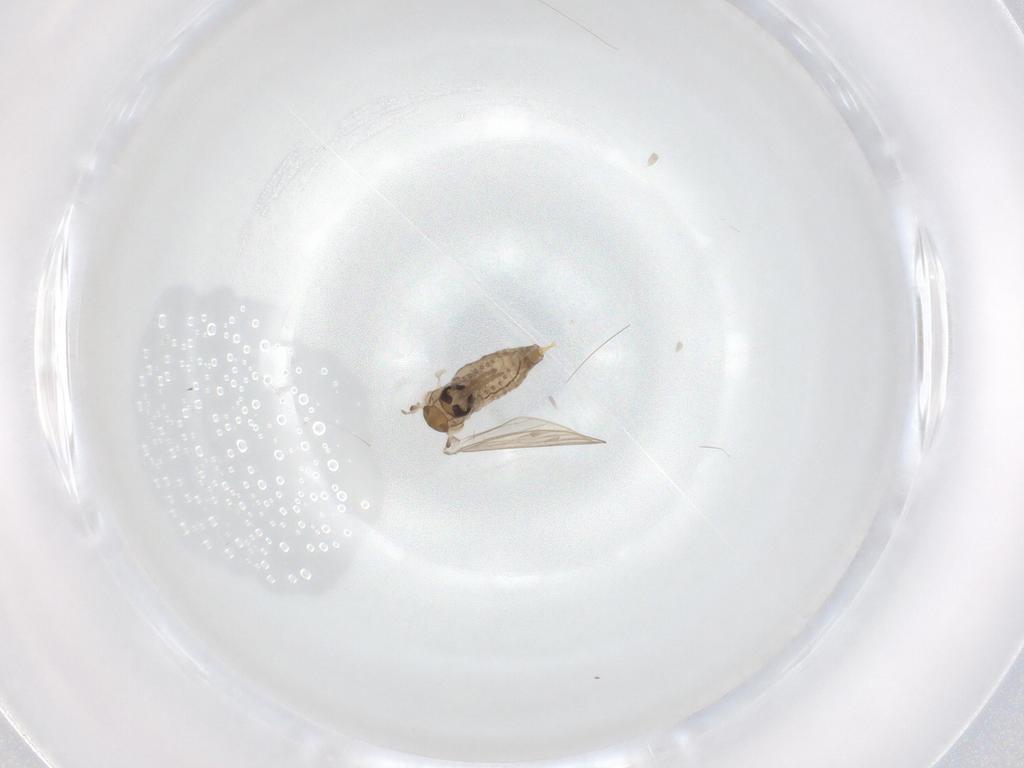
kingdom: Animalia
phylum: Arthropoda
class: Insecta
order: Diptera
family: Psychodidae
